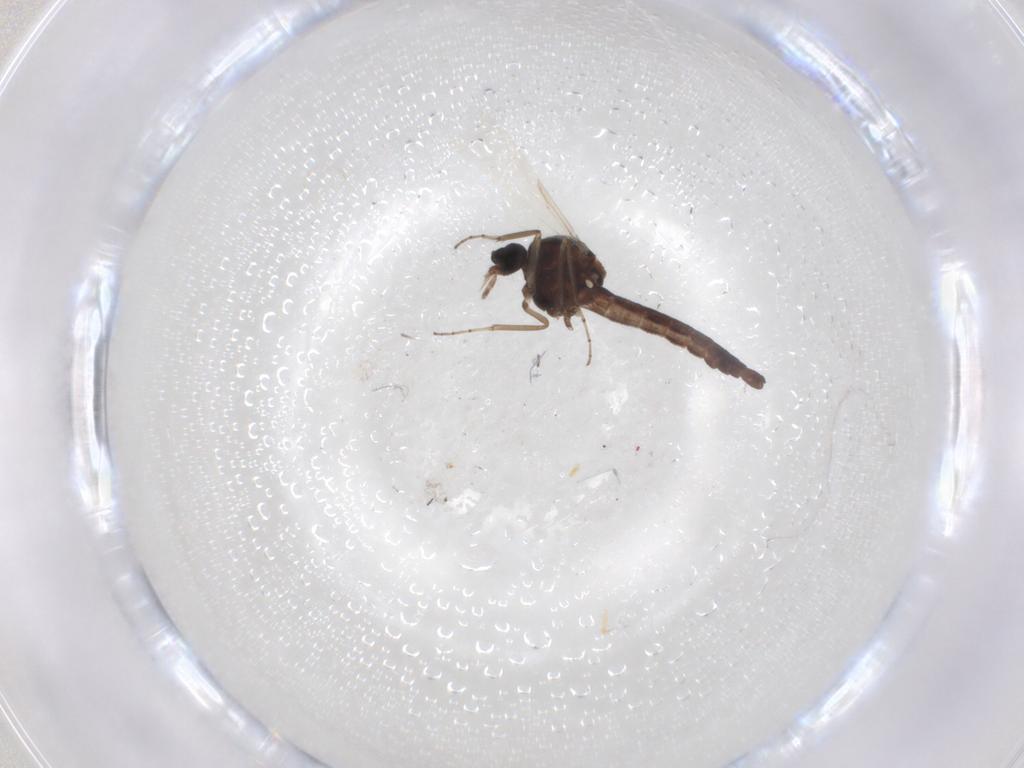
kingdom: Animalia
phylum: Arthropoda
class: Insecta
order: Diptera
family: Ceratopogonidae
